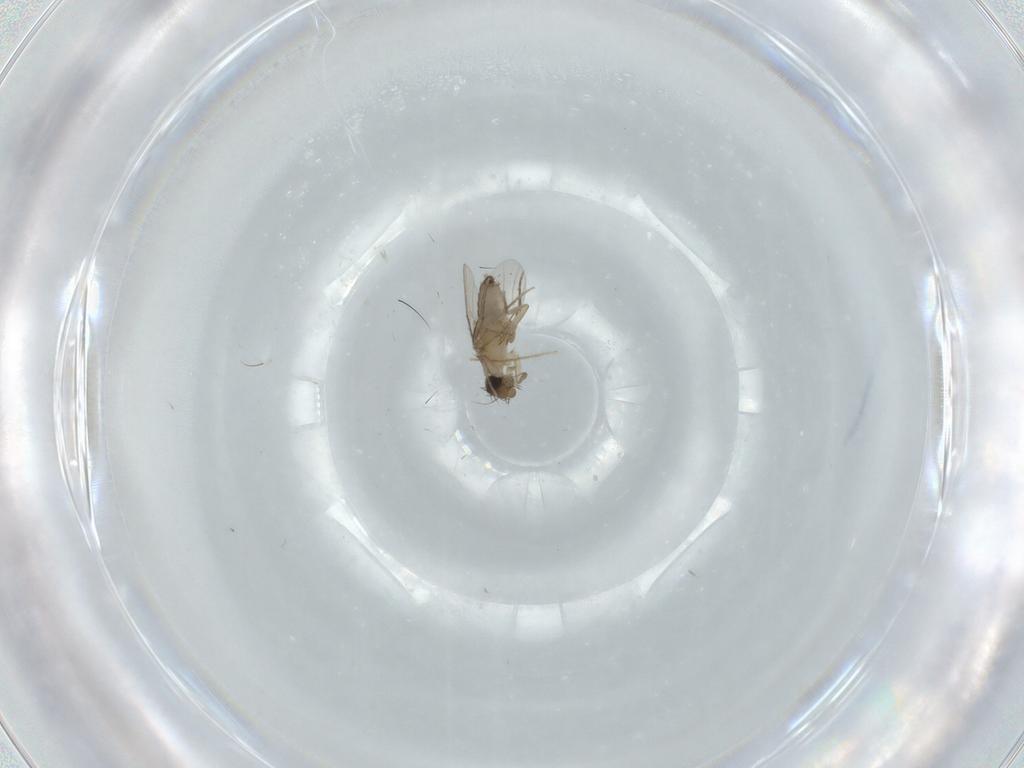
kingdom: Animalia
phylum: Arthropoda
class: Insecta
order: Diptera
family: Phoridae
